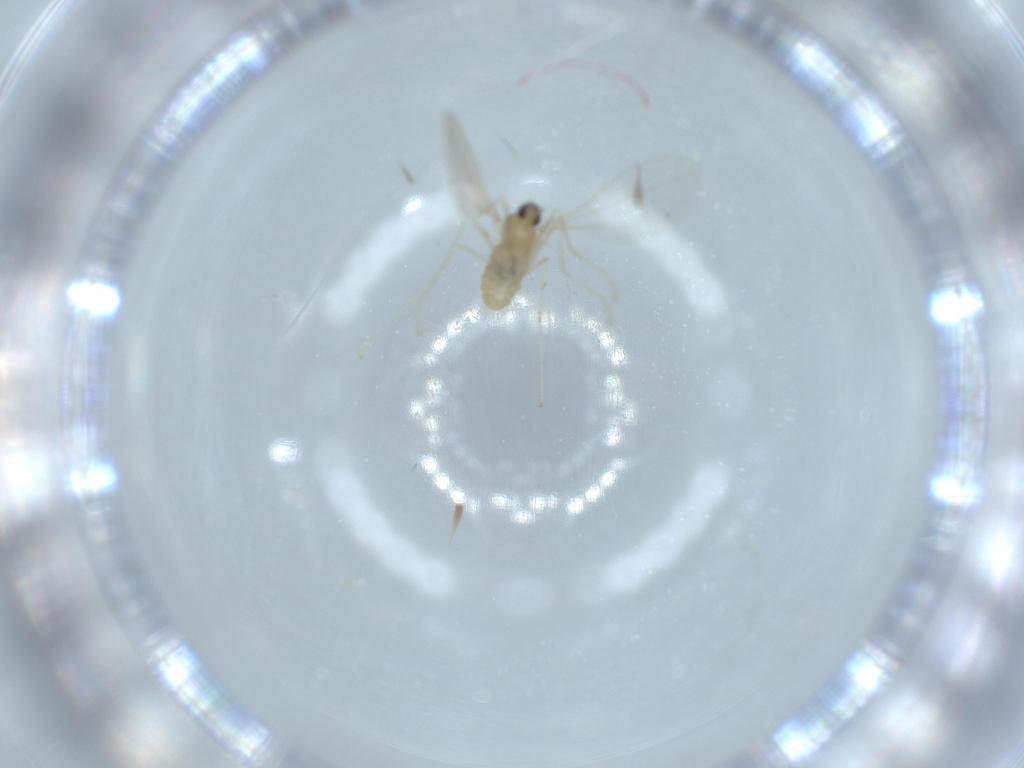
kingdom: Animalia
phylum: Arthropoda
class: Insecta
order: Diptera
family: Cecidomyiidae
